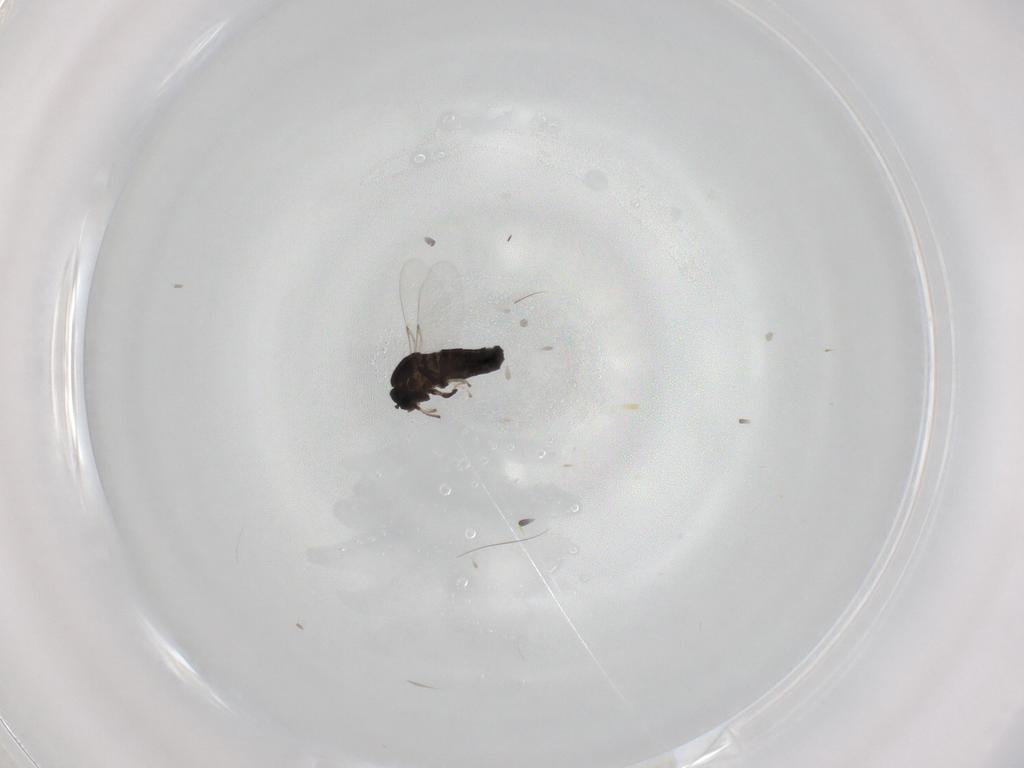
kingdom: Animalia
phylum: Arthropoda
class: Insecta
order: Diptera
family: Scatopsidae
